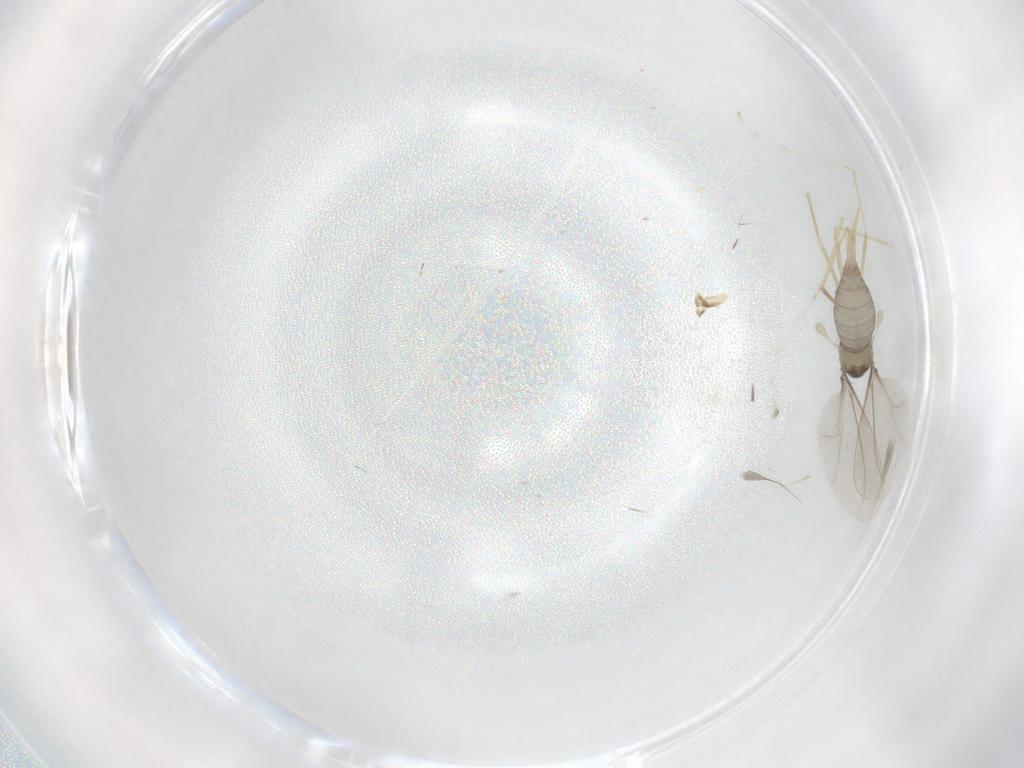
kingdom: Animalia
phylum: Arthropoda
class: Insecta
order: Diptera
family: Cecidomyiidae
